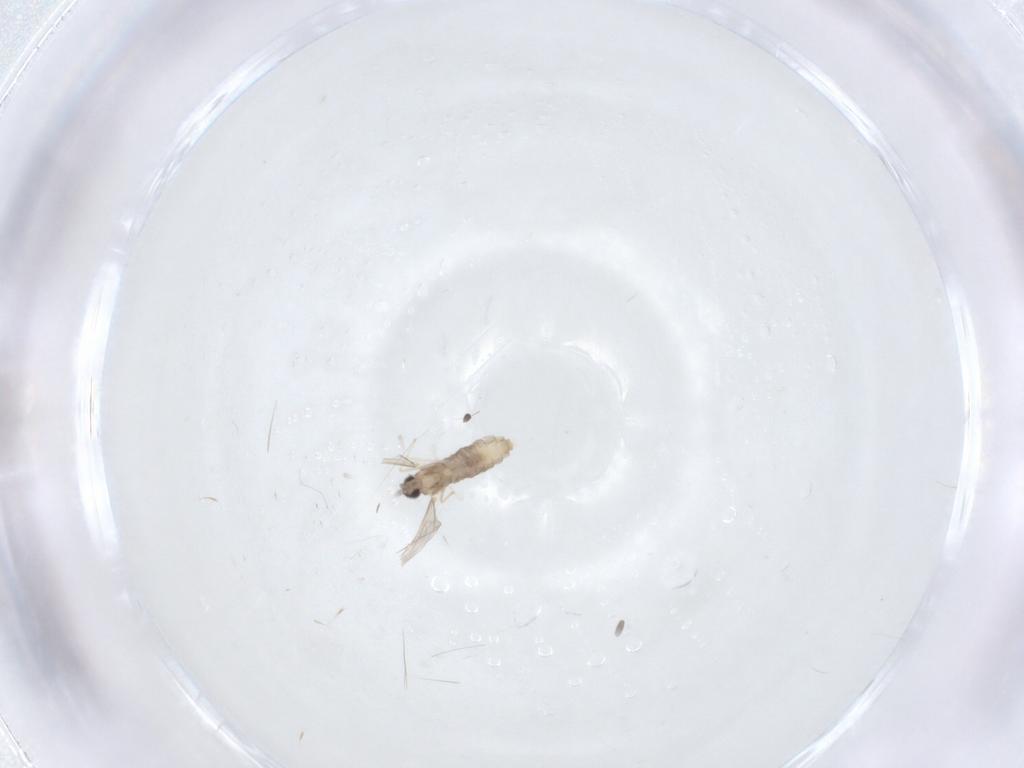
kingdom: Animalia
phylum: Arthropoda
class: Insecta
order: Diptera
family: Cecidomyiidae
